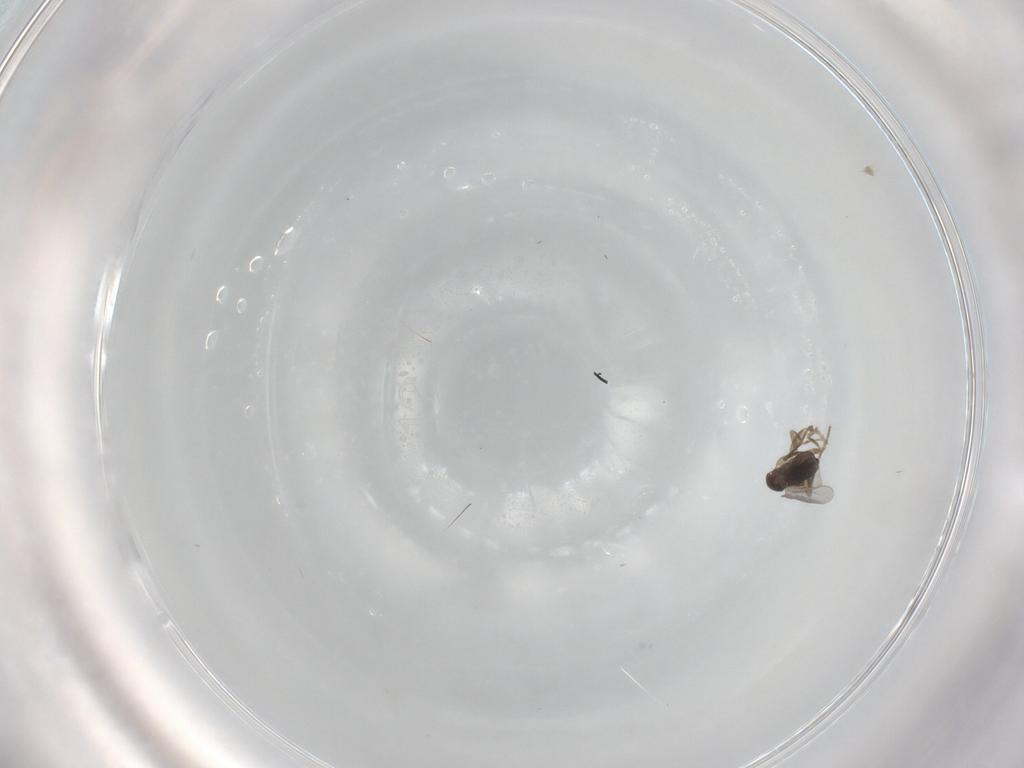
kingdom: Animalia
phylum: Arthropoda
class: Insecta
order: Diptera
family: Phoridae
